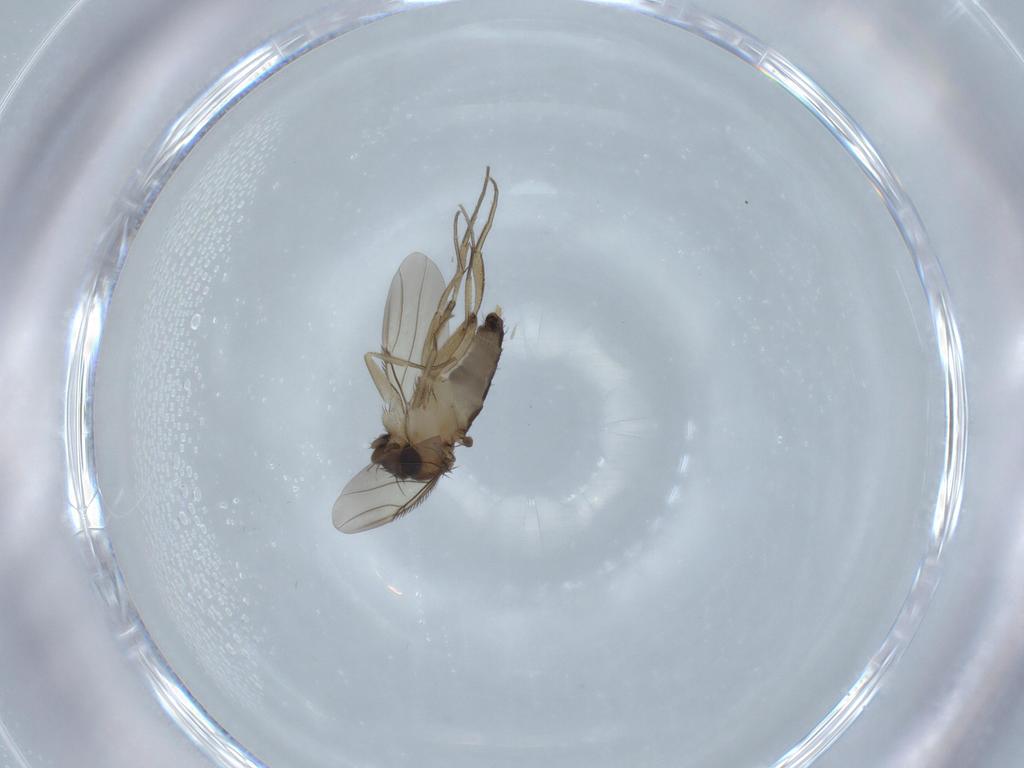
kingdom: Animalia
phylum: Arthropoda
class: Insecta
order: Diptera
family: Phoridae
